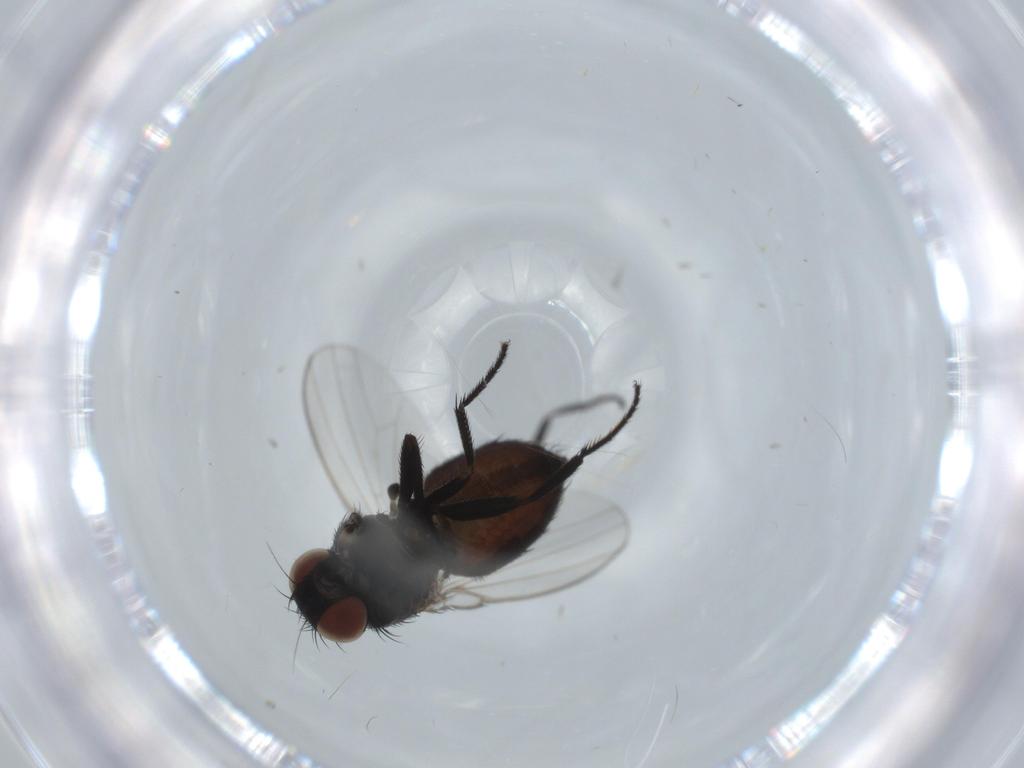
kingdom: Animalia
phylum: Arthropoda
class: Insecta
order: Diptera
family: Milichiidae
